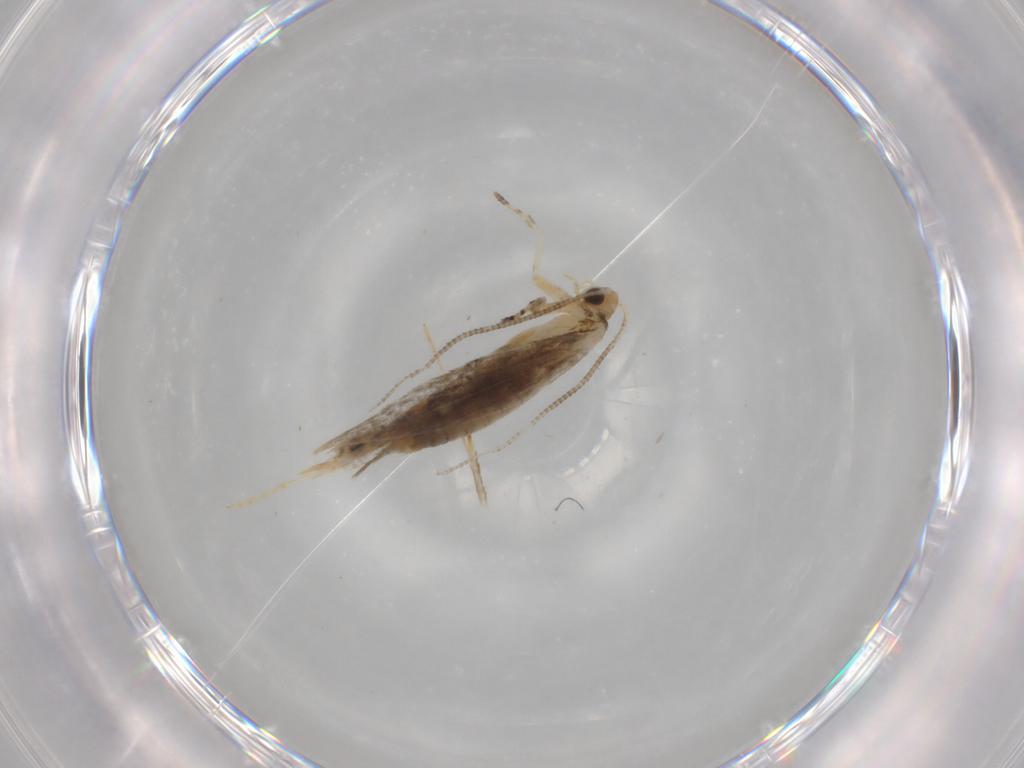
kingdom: Animalia
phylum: Arthropoda
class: Insecta
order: Lepidoptera
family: Tineidae
